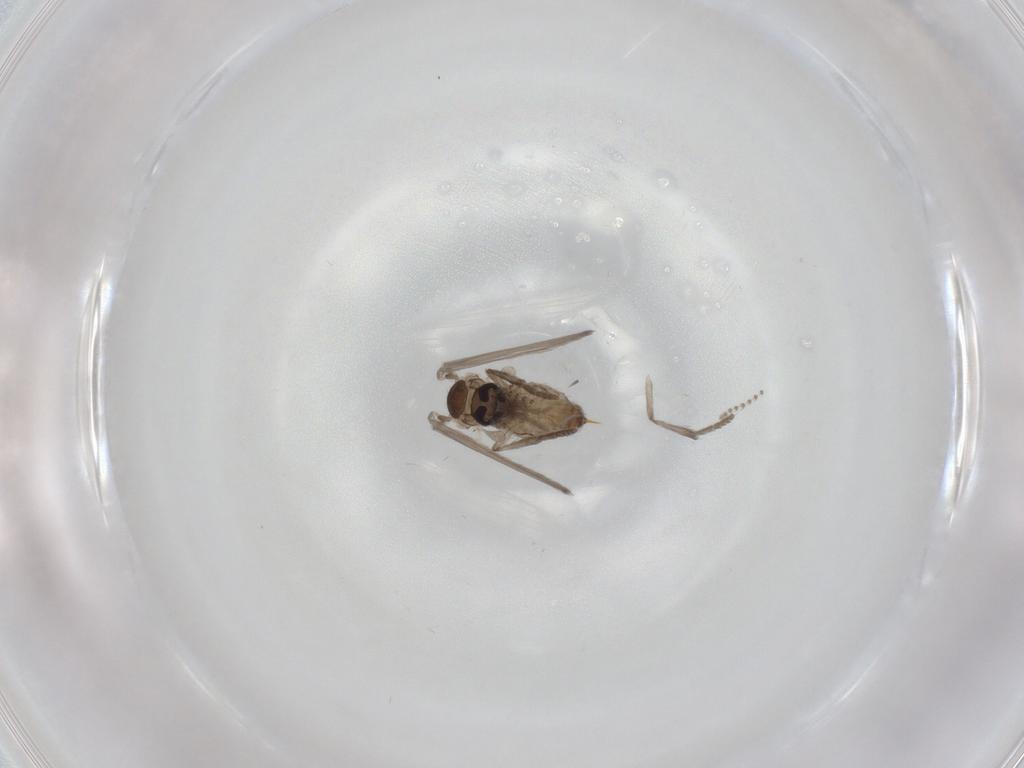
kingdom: Animalia
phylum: Arthropoda
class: Insecta
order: Diptera
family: Psychodidae
